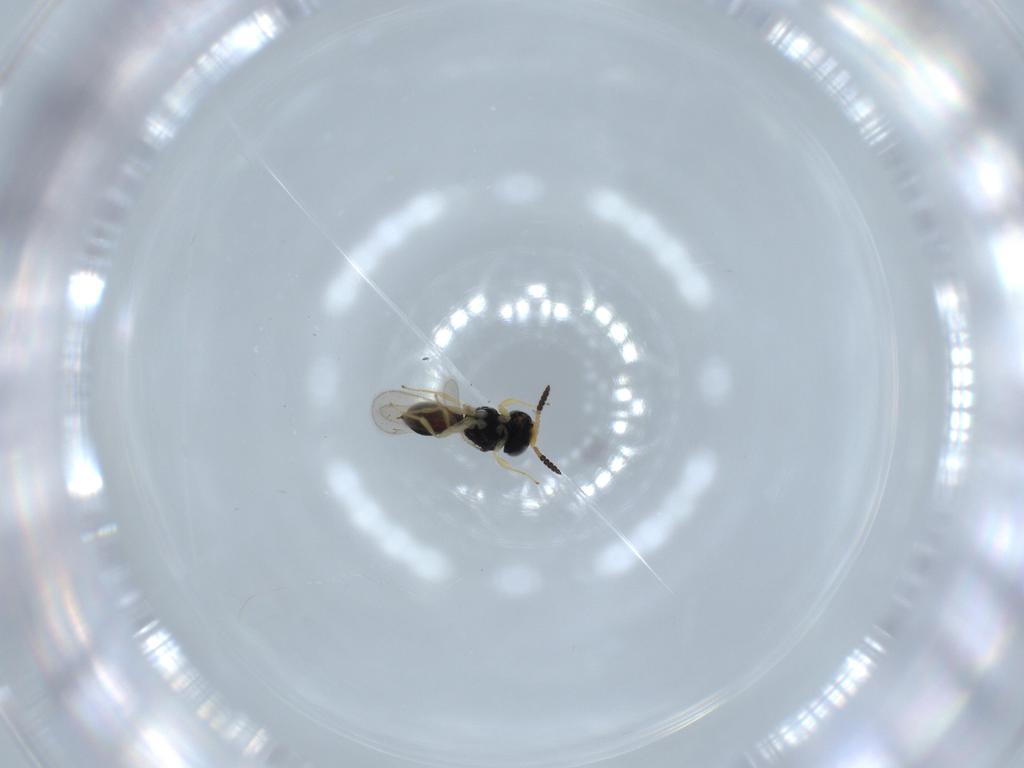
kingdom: Animalia
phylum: Arthropoda
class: Insecta
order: Hymenoptera
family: Scelionidae
